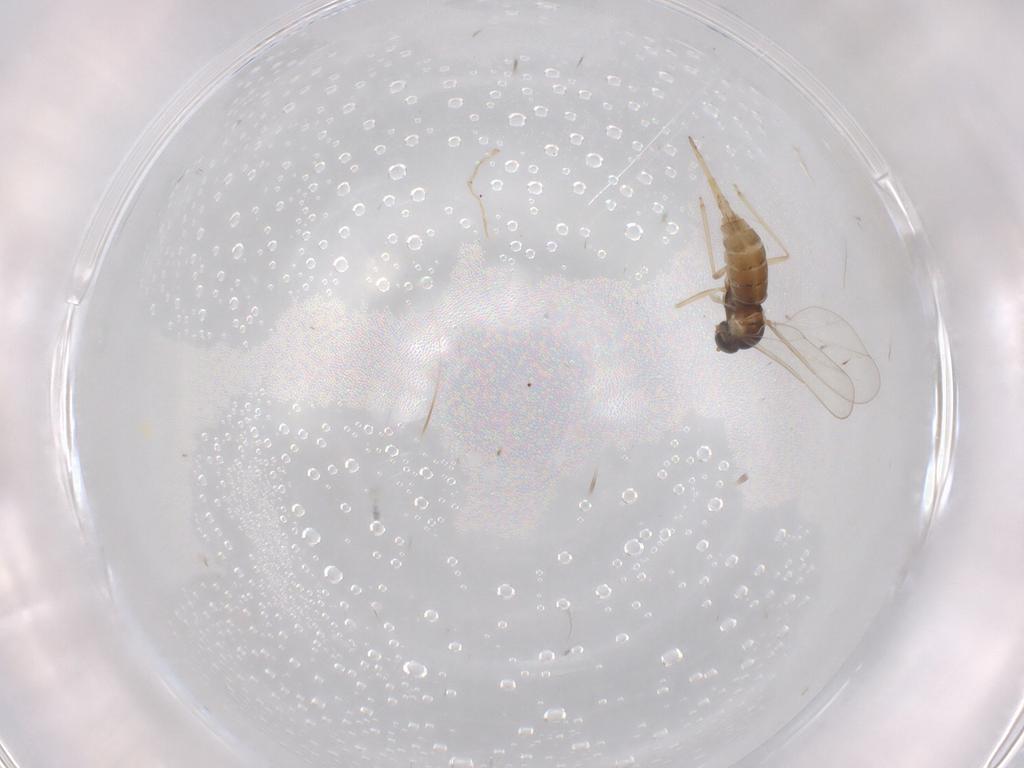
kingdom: Animalia
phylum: Arthropoda
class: Insecta
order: Diptera
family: Cecidomyiidae
